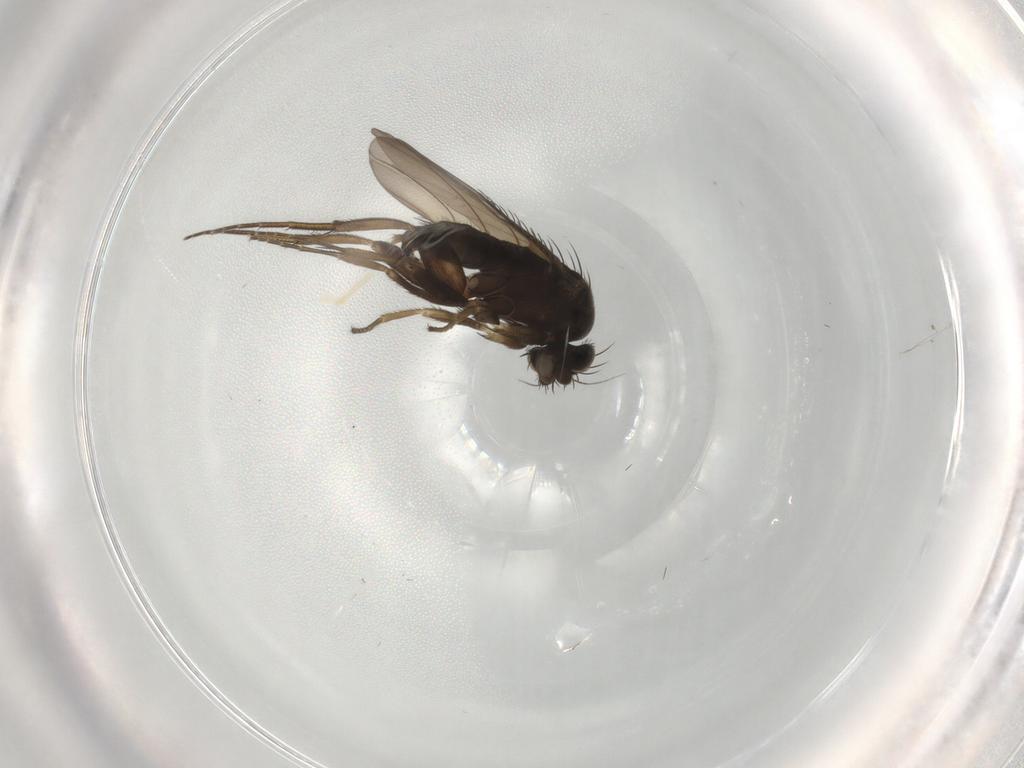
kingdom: Animalia
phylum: Arthropoda
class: Insecta
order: Diptera
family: Phoridae
